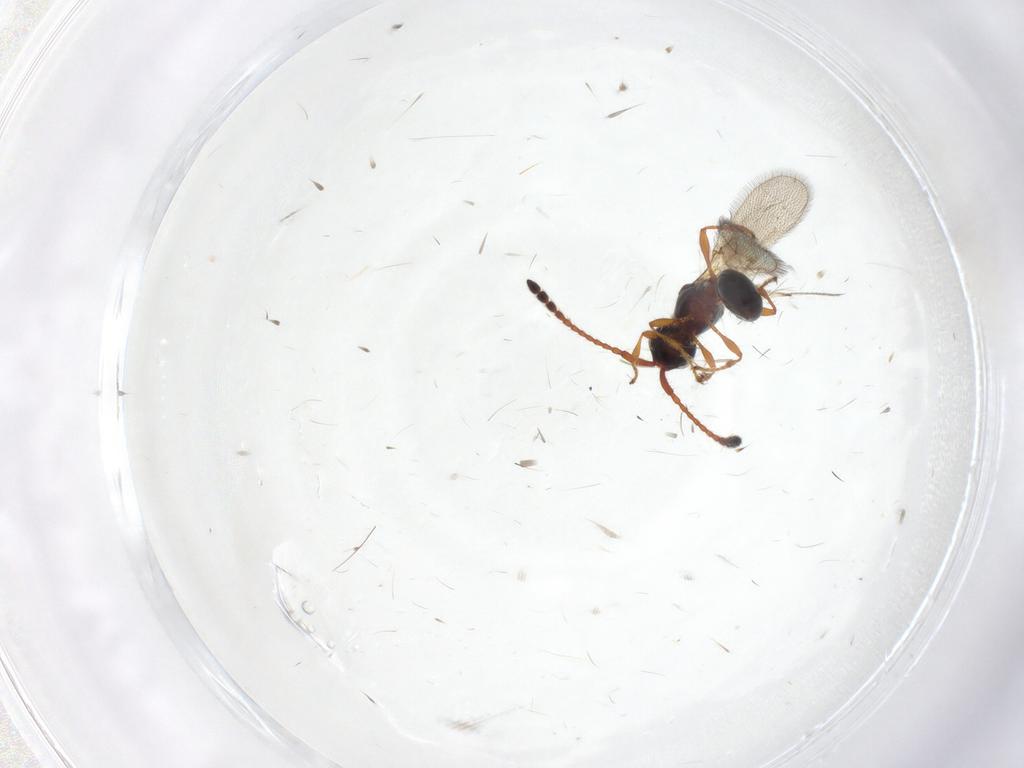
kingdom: Animalia
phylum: Arthropoda
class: Insecta
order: Hymenoptera
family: Diapriidae
